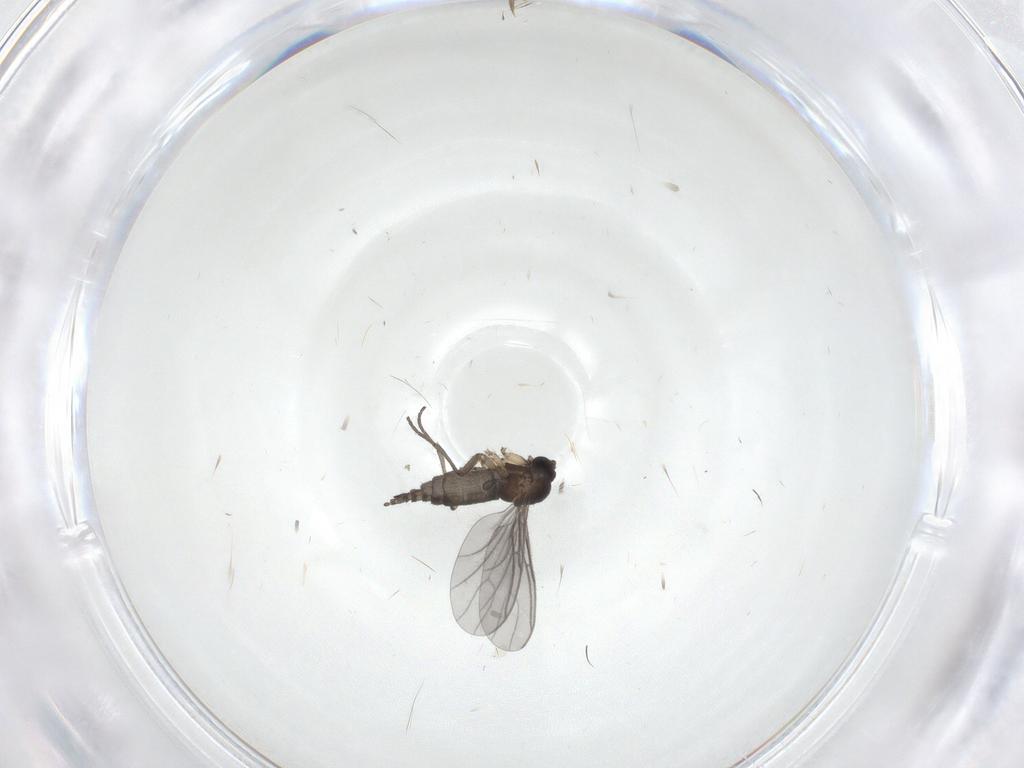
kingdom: Animalia
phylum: Arthropoda
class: Insecta
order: Diptera
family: Sciaridae
